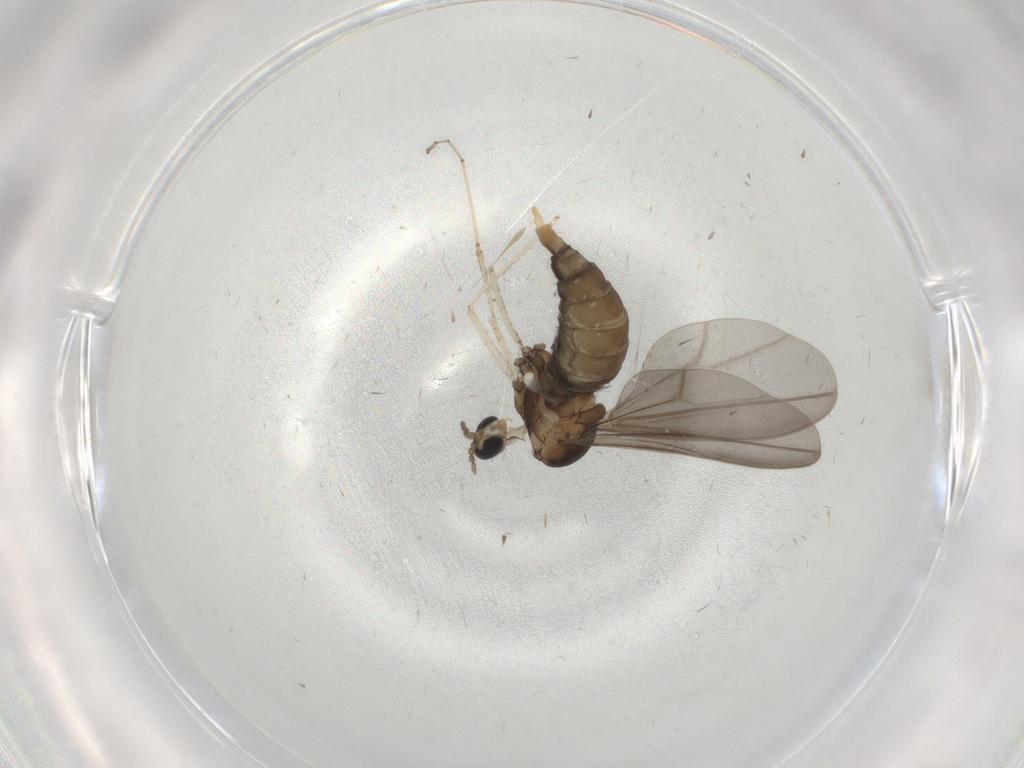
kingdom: Animalia
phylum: Arthropoda
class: Insecta
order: Diptera
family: Cecidomyiidae
